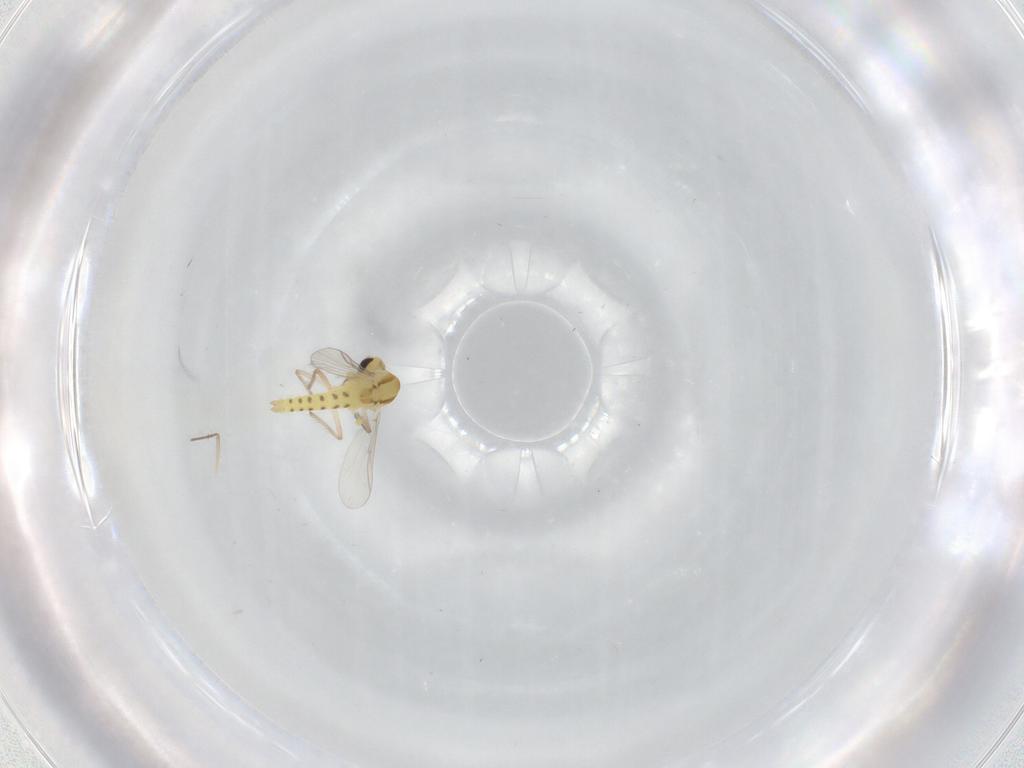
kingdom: Animalia
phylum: Arthropoda
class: Insecta
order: Diptera
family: Chironomidae
